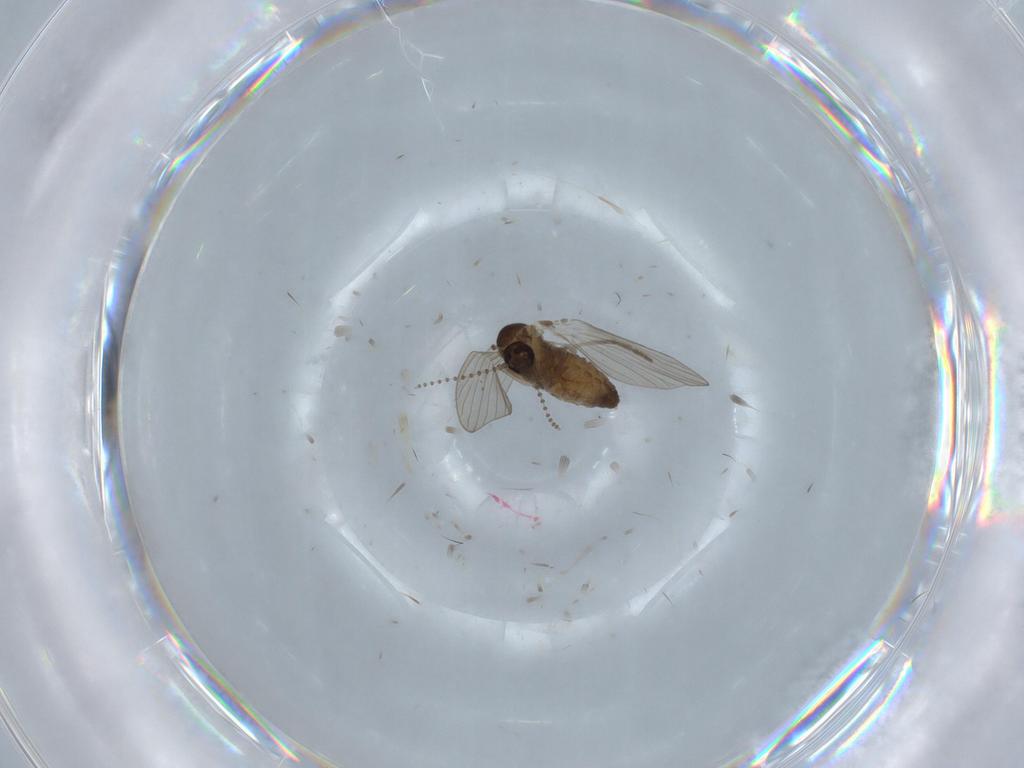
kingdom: Animalia
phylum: Arthropoda
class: Insecta
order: Diptera
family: Psychodidae
